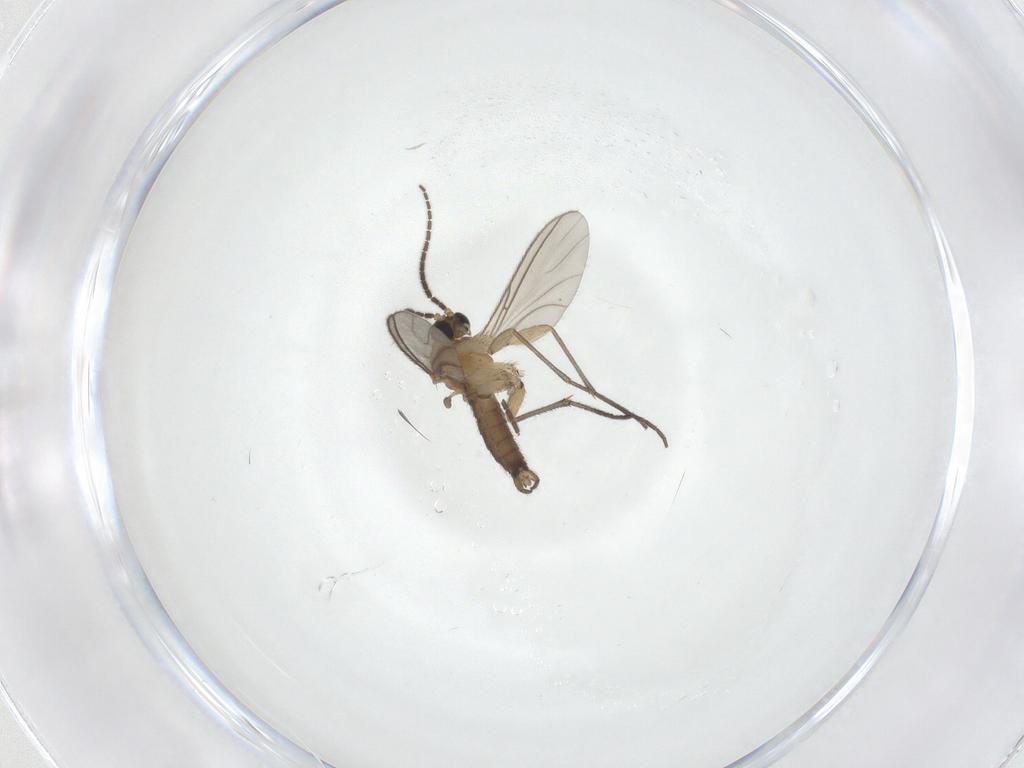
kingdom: Animalia
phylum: Arthropoda
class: Insecta
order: Diptera
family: Sciaridae
